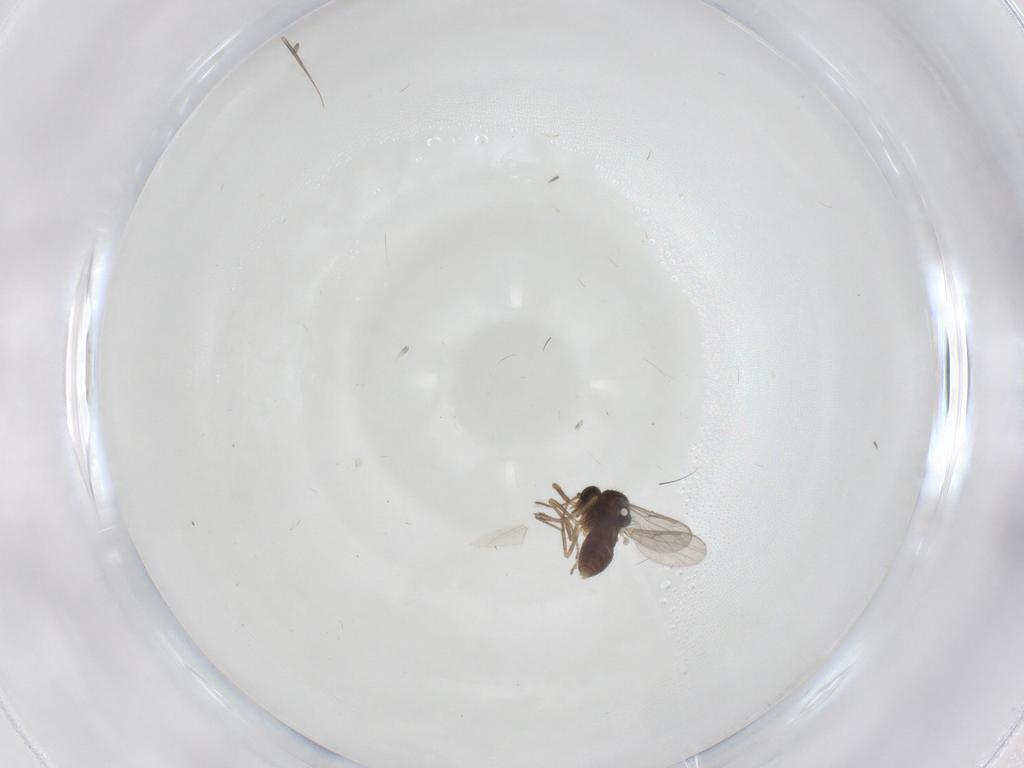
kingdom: Animalia
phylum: Arthropoda
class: Insecta
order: Diptera
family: Limoniidae
